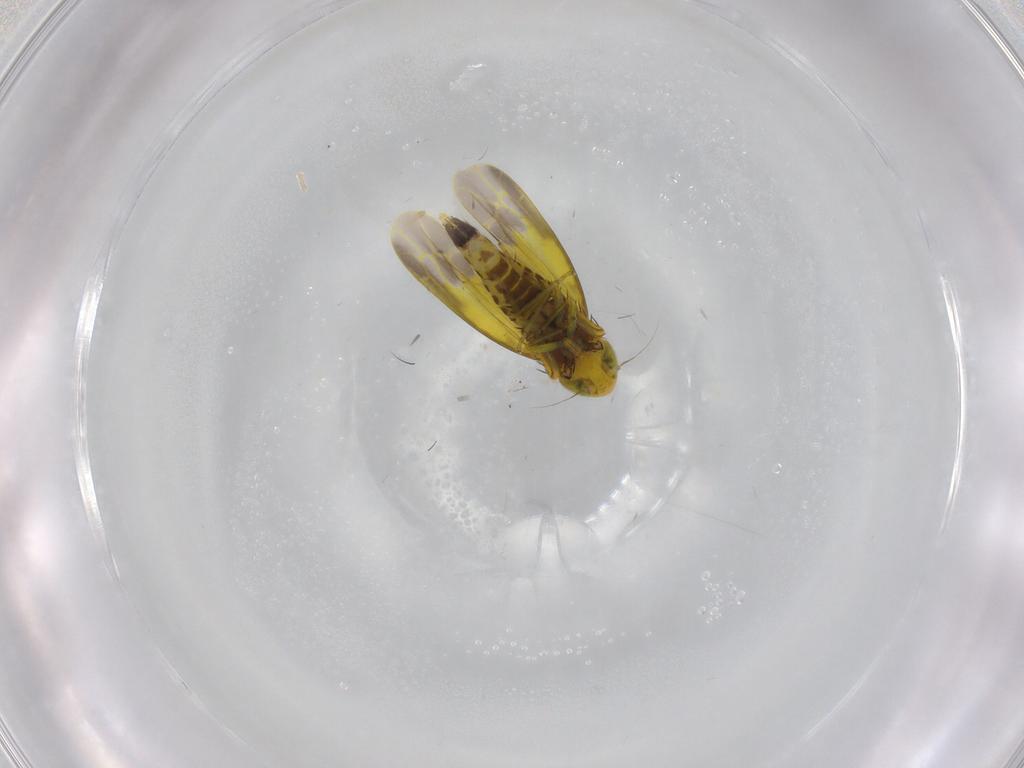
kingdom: Animalia
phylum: Arthropoda
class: Insecta
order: Hemiptera
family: Cicadellidae
